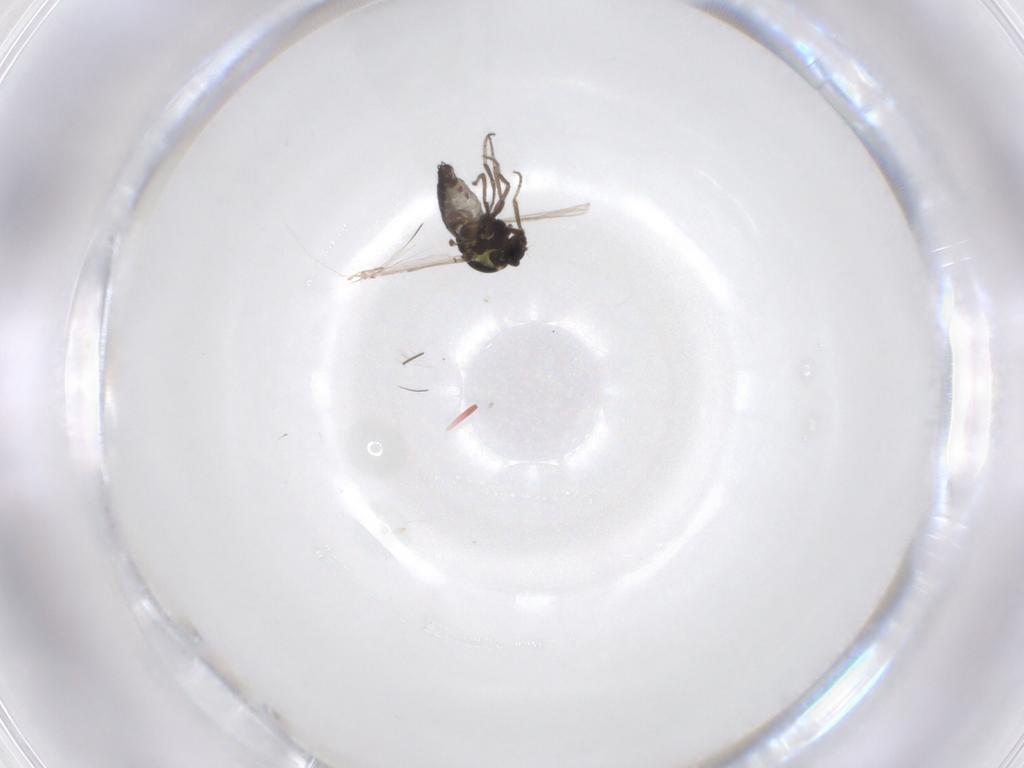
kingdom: Animalia
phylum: Arthropoda
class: Insecta
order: Diptera
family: Ceratopogonidae
